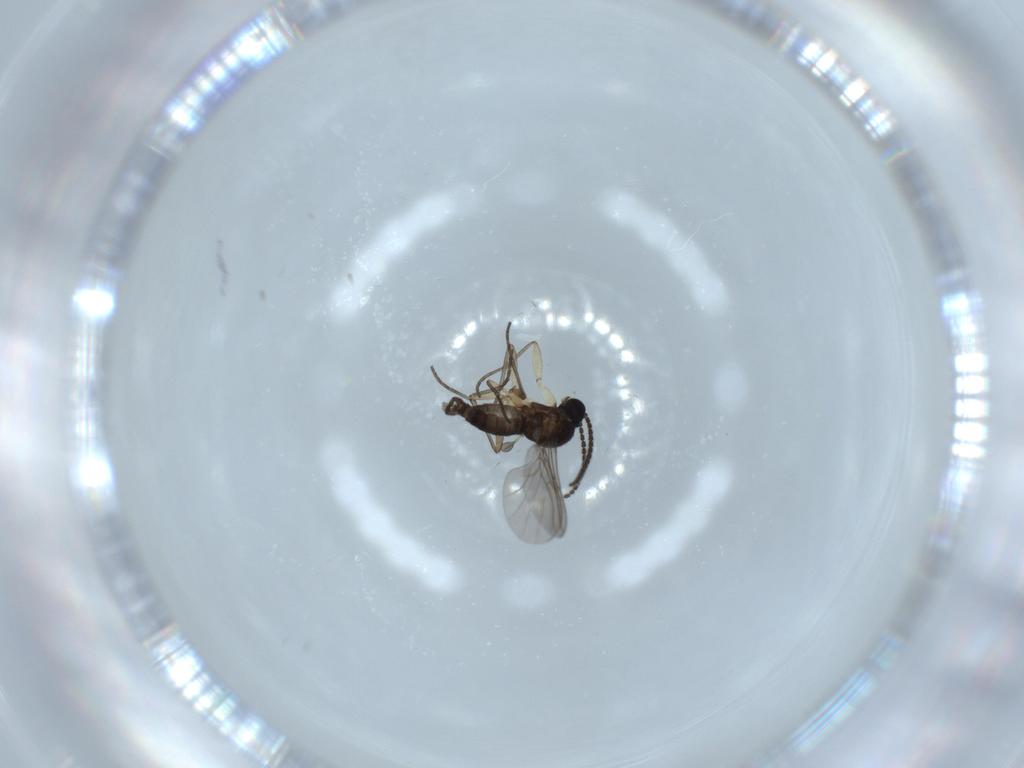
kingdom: Animalia
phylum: Arthropoda
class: Insecta
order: Diptera
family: Sciaridae
